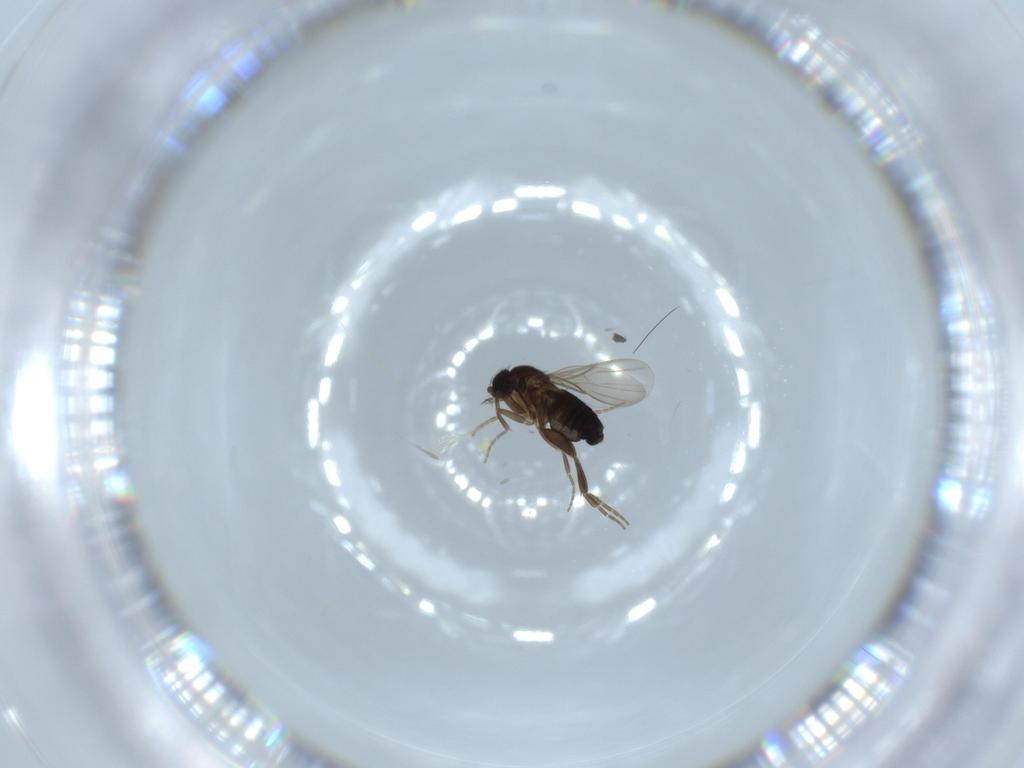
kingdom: Animalia
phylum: Arthropoda
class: Insecta
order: Diptera
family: Phoridae
